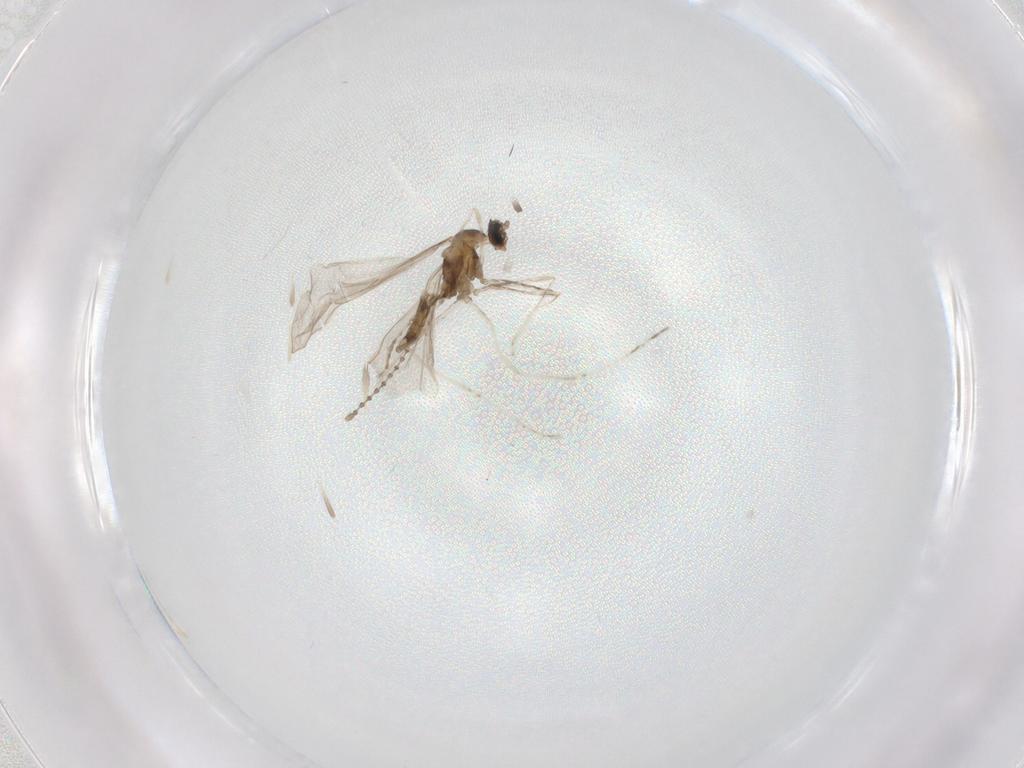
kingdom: Animalia
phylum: Arthropoda
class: Insecta
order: Diptera
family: Cecidomyiidae
